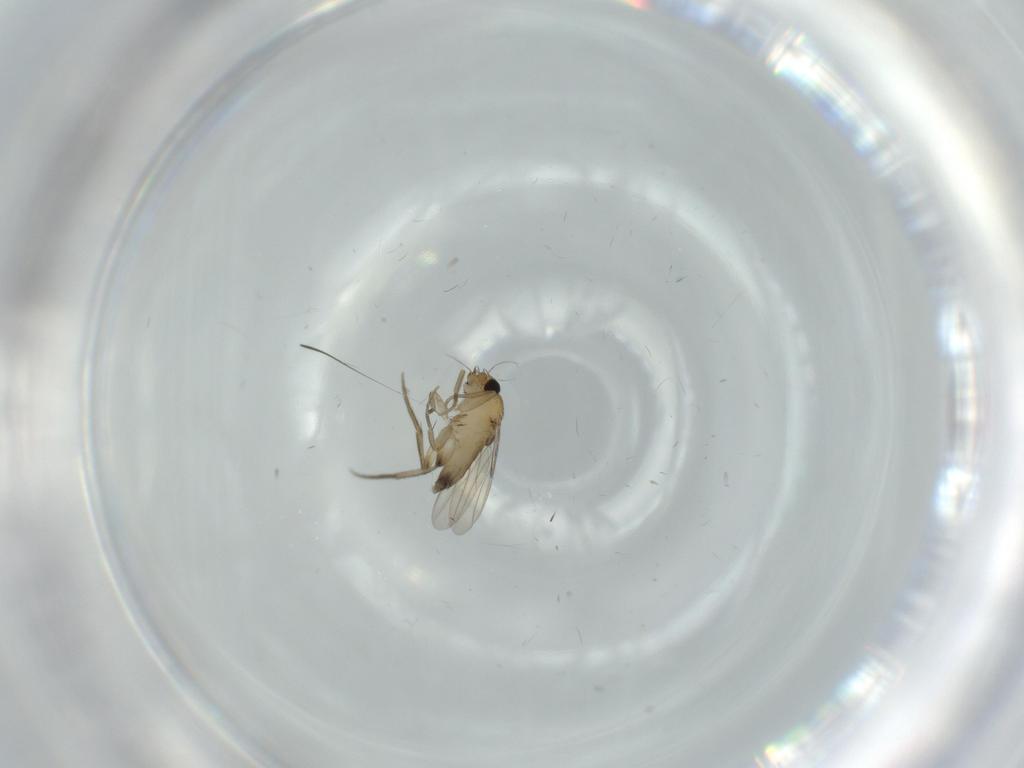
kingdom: Animalia
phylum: Arthropoda
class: Insecta
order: Diptera
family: Phoridae
